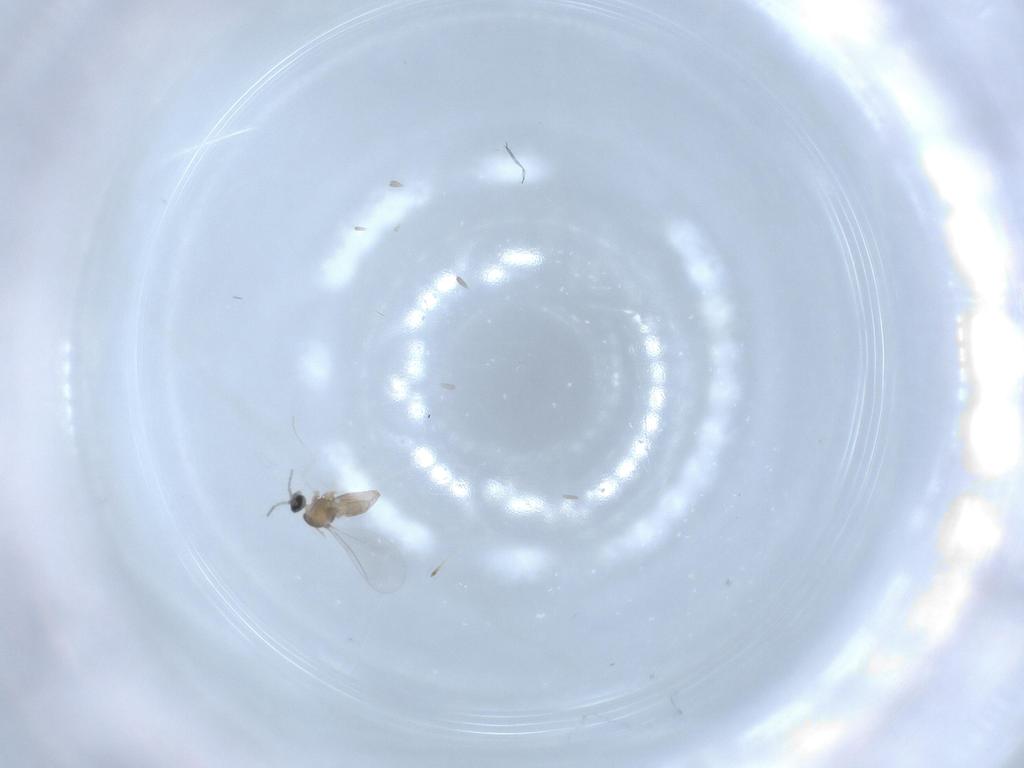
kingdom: Animalia
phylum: Arthropoda
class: Insecta
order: Diptera
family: Cecidomyiidae
